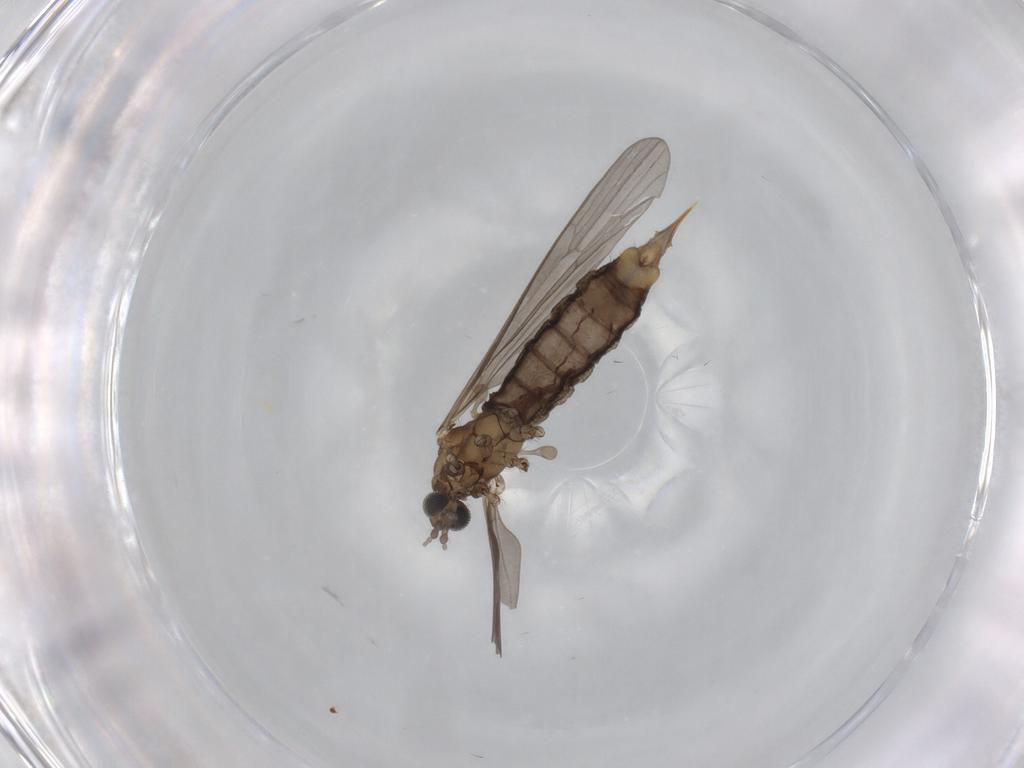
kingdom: Animalia
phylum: Arthropoda
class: Insecta
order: Diptera
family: Limoniidae
